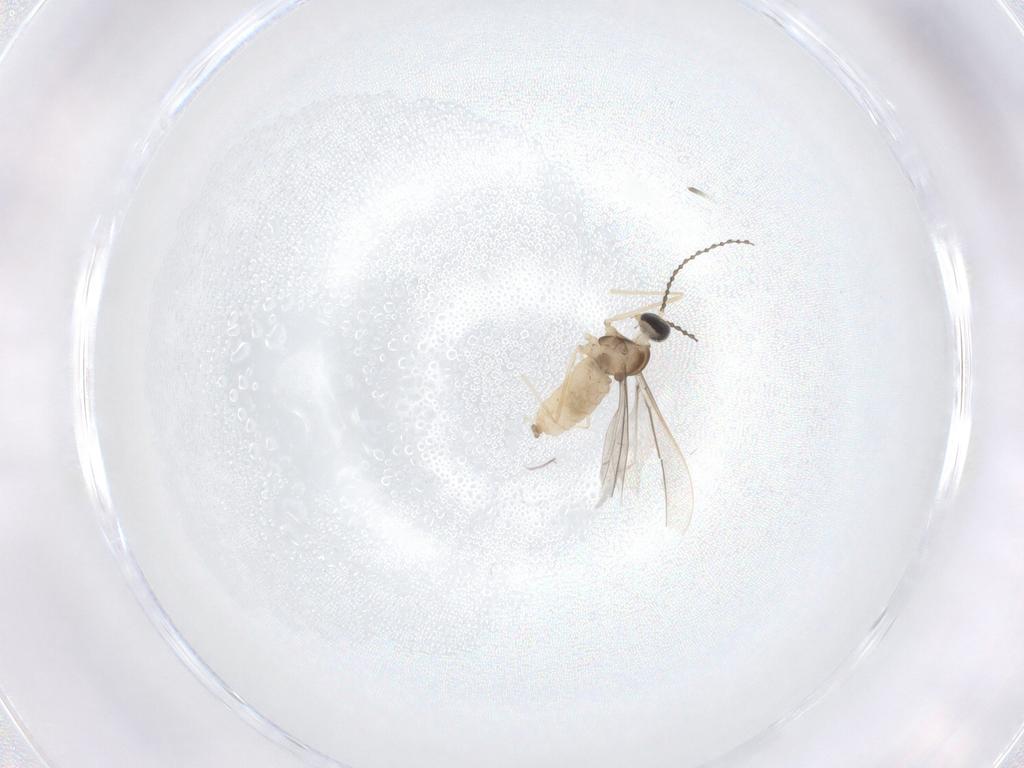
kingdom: Animalia
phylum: Arthropoda
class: Insecta
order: Diptera
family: Cecidomyiidae
